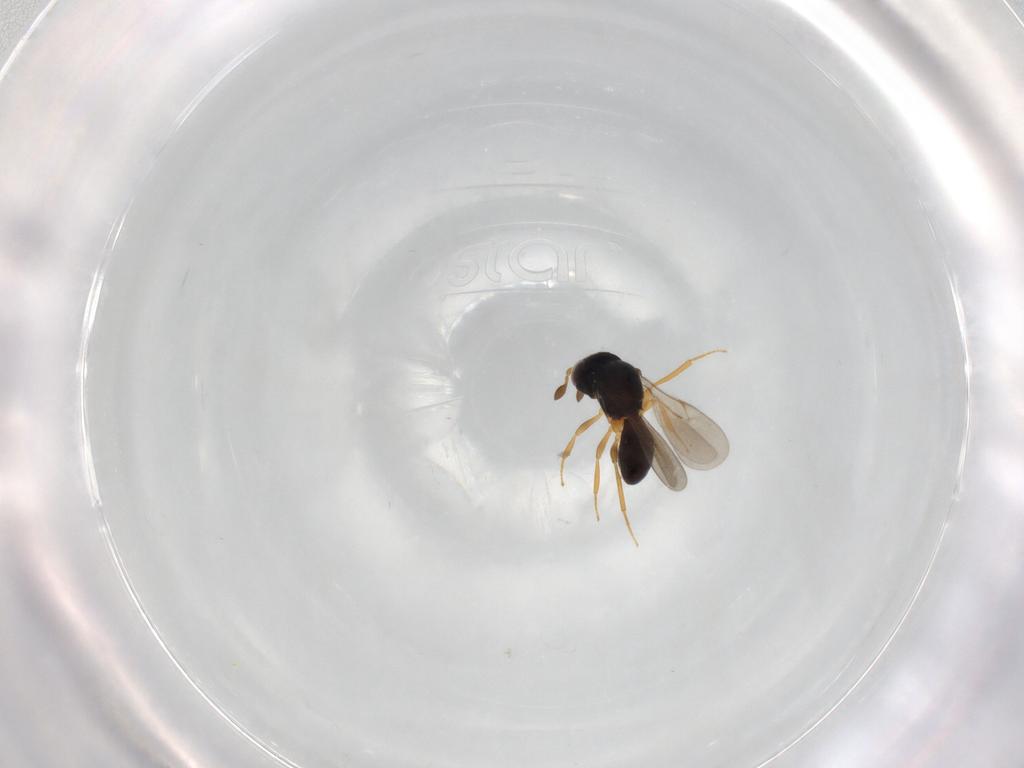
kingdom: Animalia
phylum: Arthropoda
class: Insecta
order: Hymenoptera
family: Scelionidae
